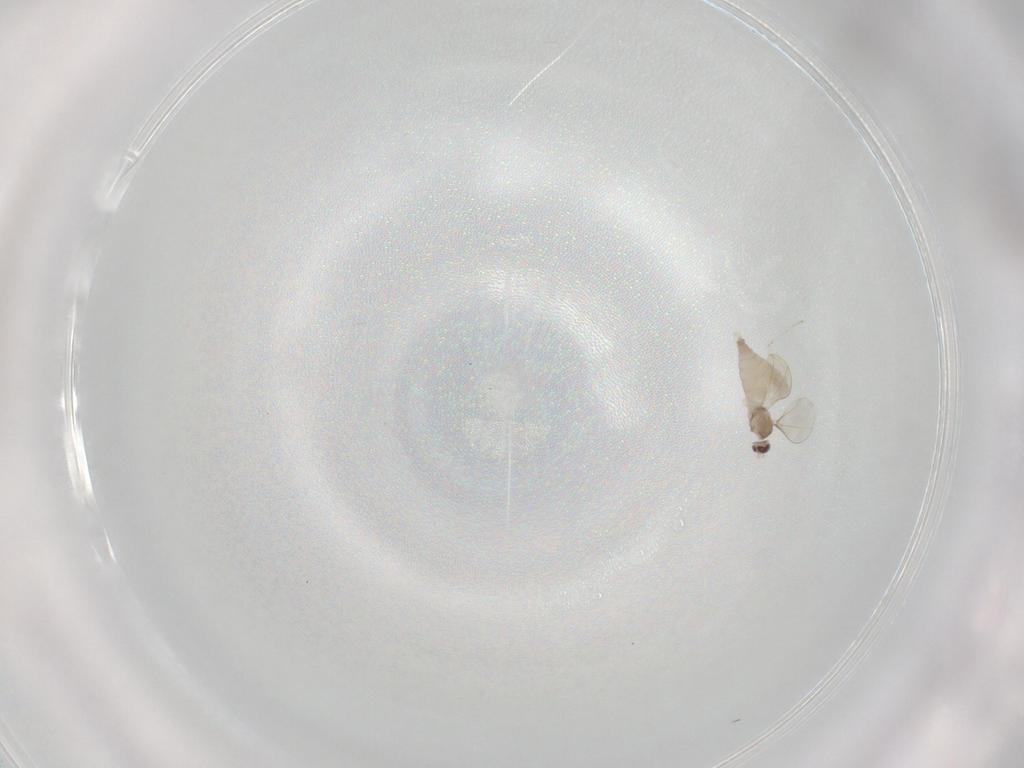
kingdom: Animalia
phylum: Arthropoda
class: Insecta
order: Diptera
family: Cecidomyiidae
